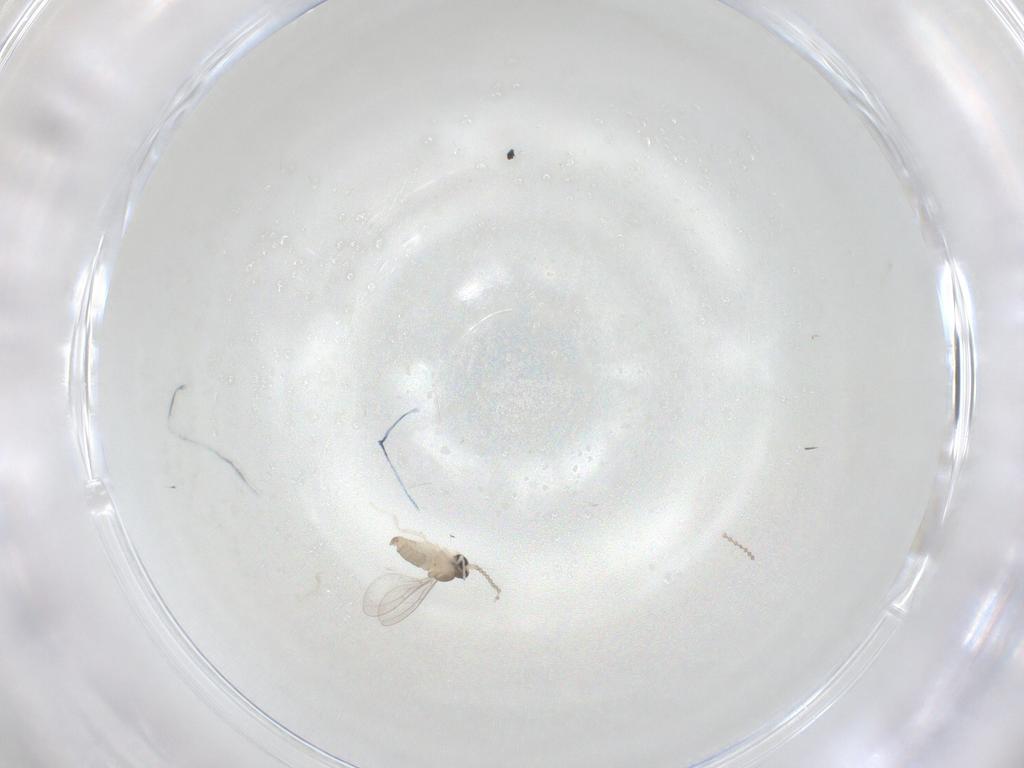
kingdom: Animalia
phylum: Arthropoda
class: Insecta
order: Diptera
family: Cecidomyiidae
